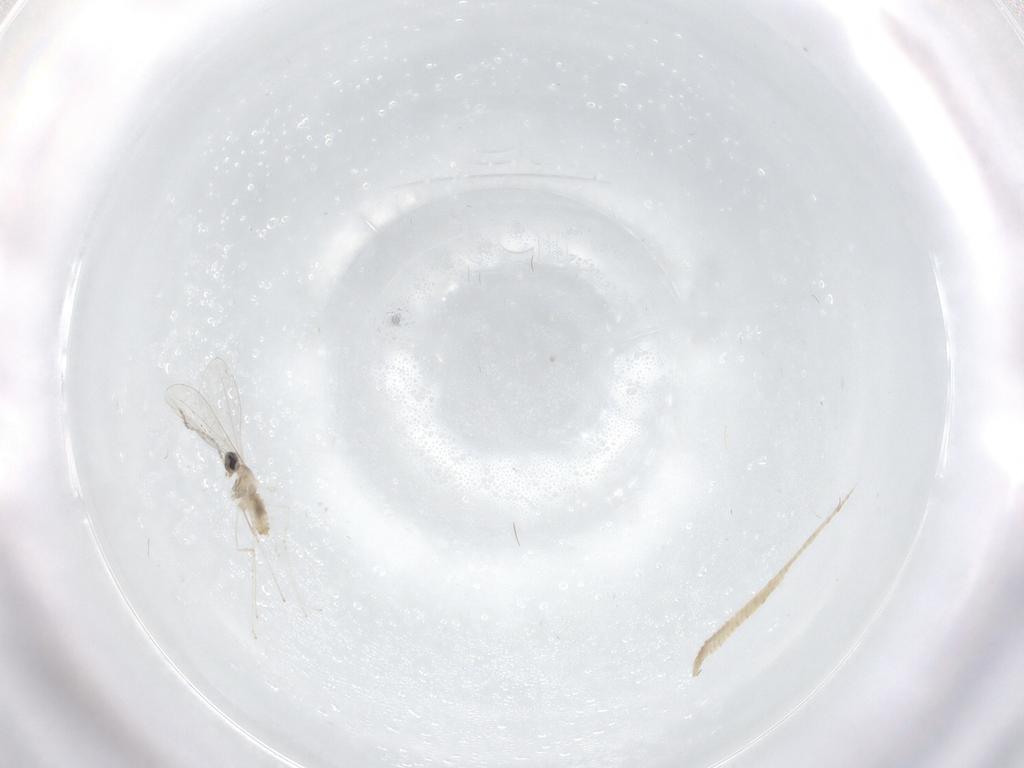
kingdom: Animalia
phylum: Arthropoda
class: Insecta
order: Diptera
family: Ceratopogonidae
